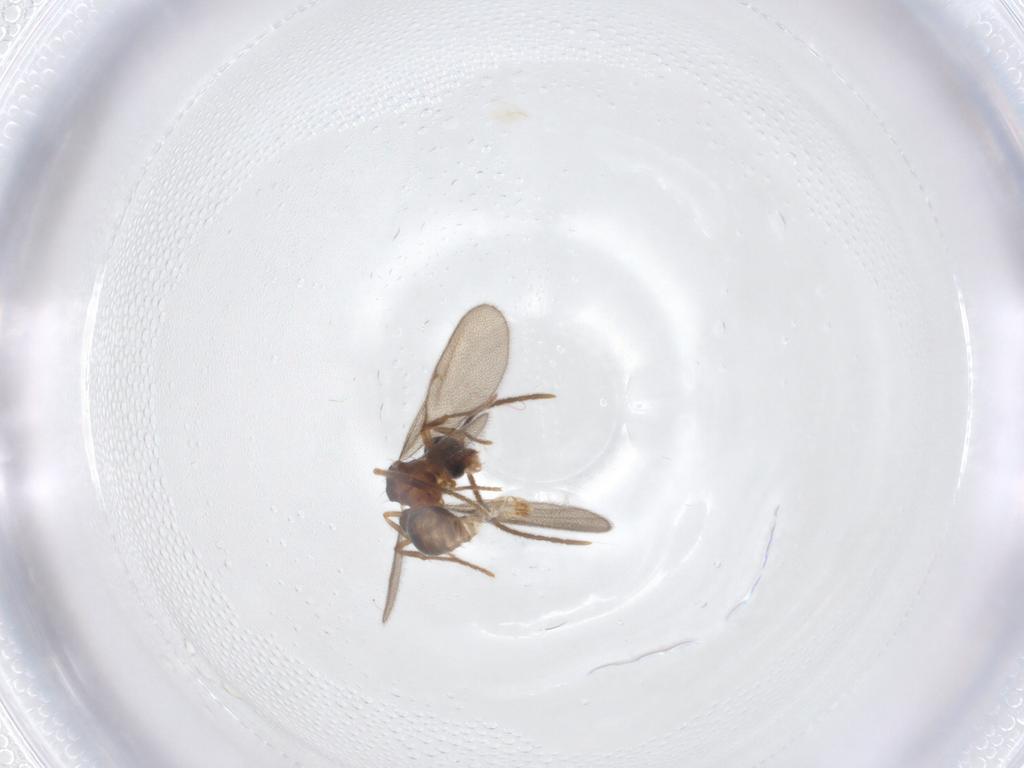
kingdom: Animalia
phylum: Arthropoda
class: Insecta
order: Hymenoptera
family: Formicidae
